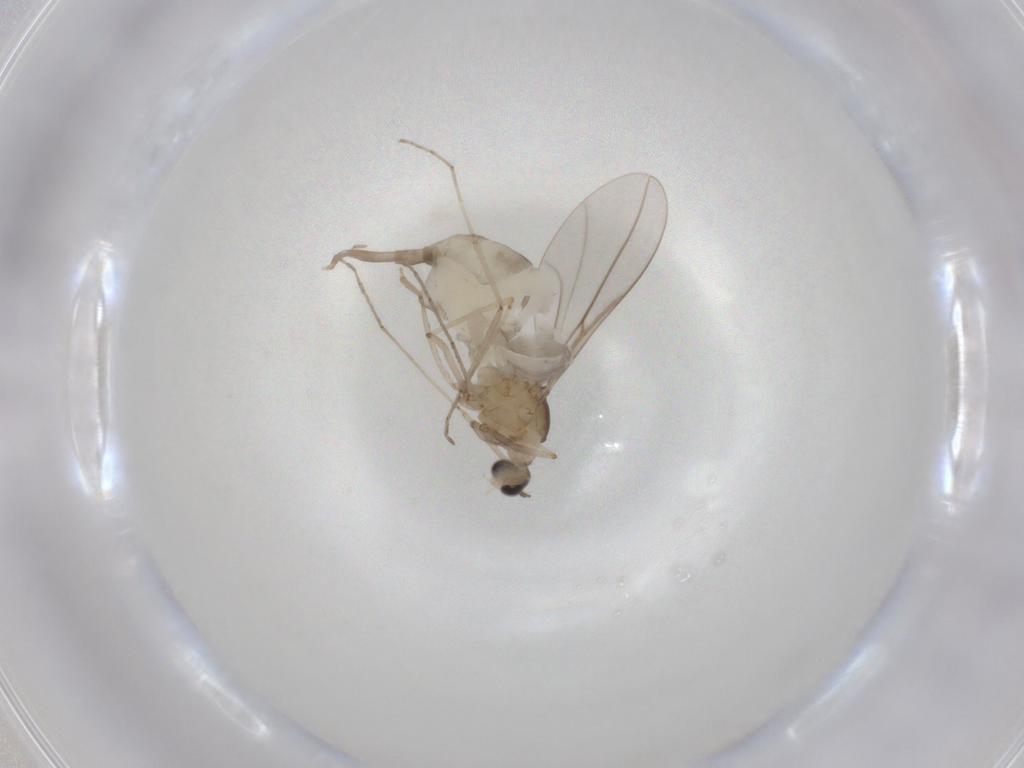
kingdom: Animalia
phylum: Arthropoda
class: Insecta
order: Diptera
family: Cecidomyiidae
